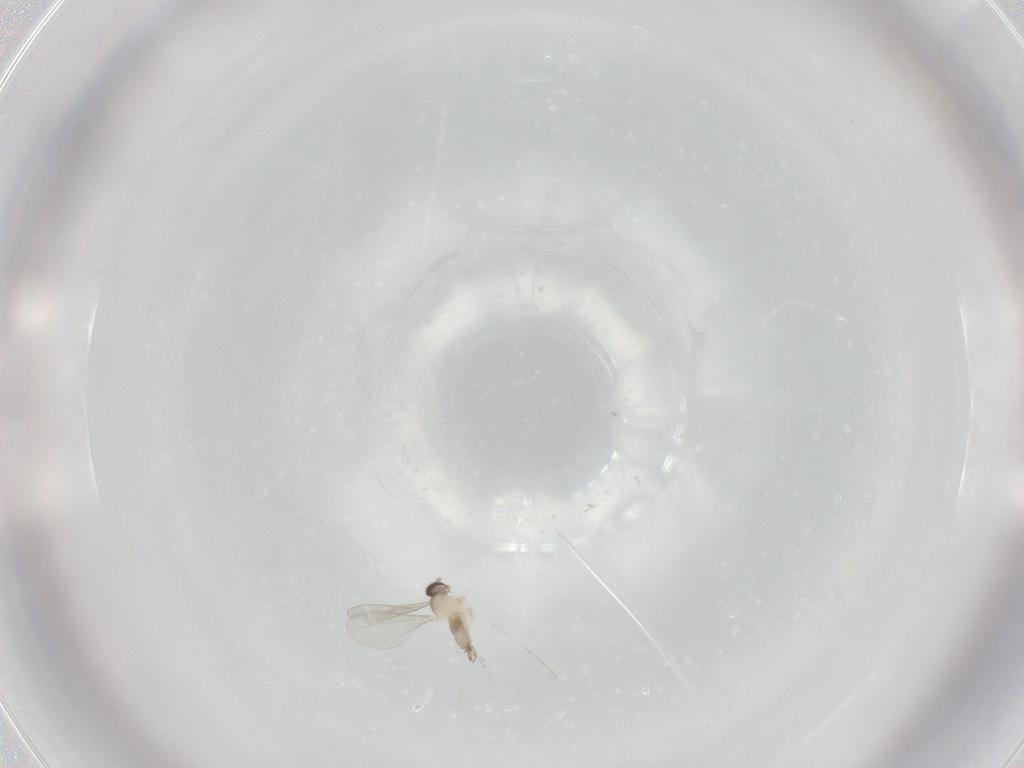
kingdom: Animalia
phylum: Arthropoda
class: Insecta
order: Diptera
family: Cecidomyiidae
